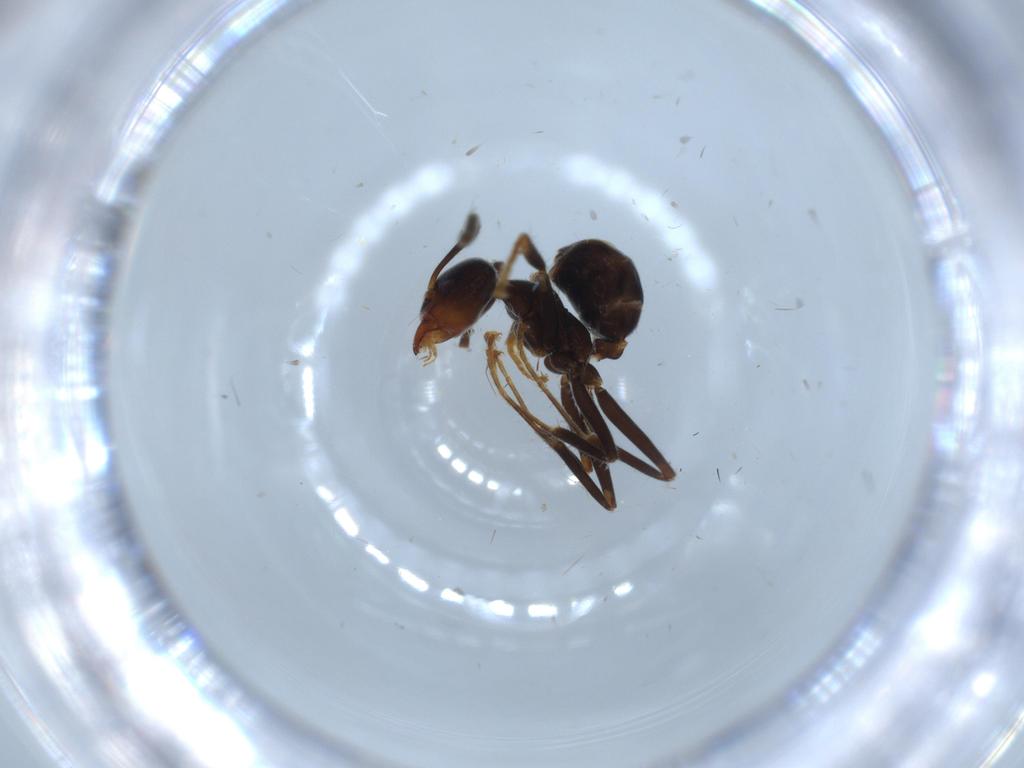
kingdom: Animalia
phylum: Arthropoda
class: Insecta
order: Hymenoptera
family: Formicidae
